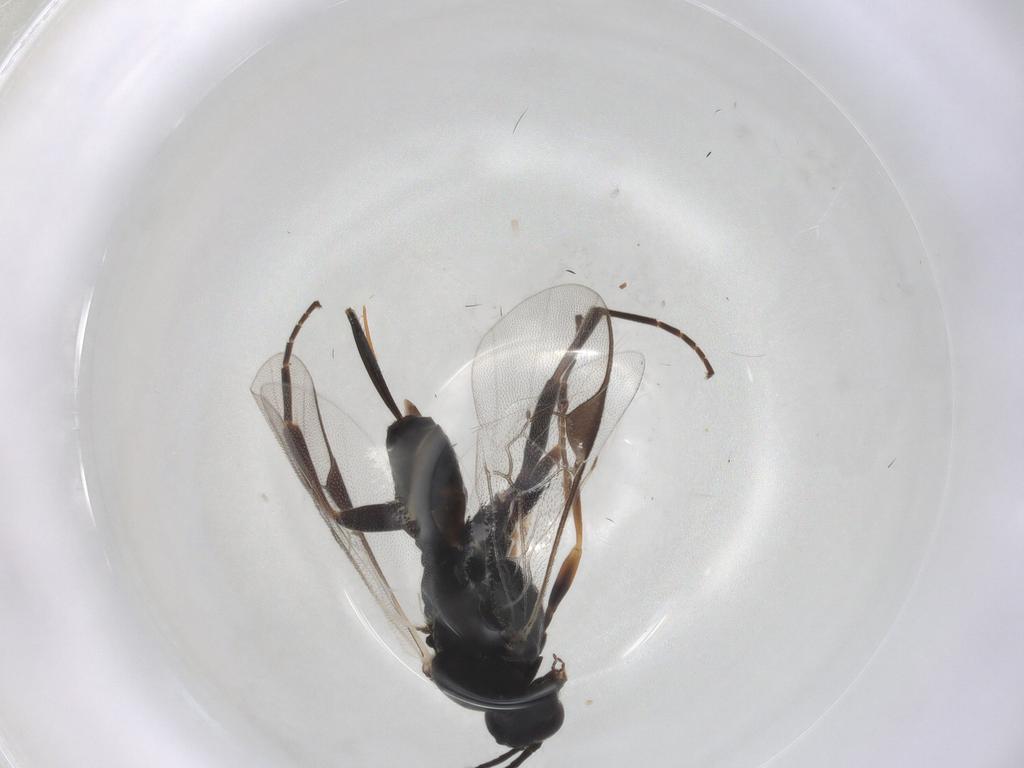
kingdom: Animalia
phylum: Arthropoda
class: Insecta
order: Hymenoptera
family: Braconidae
